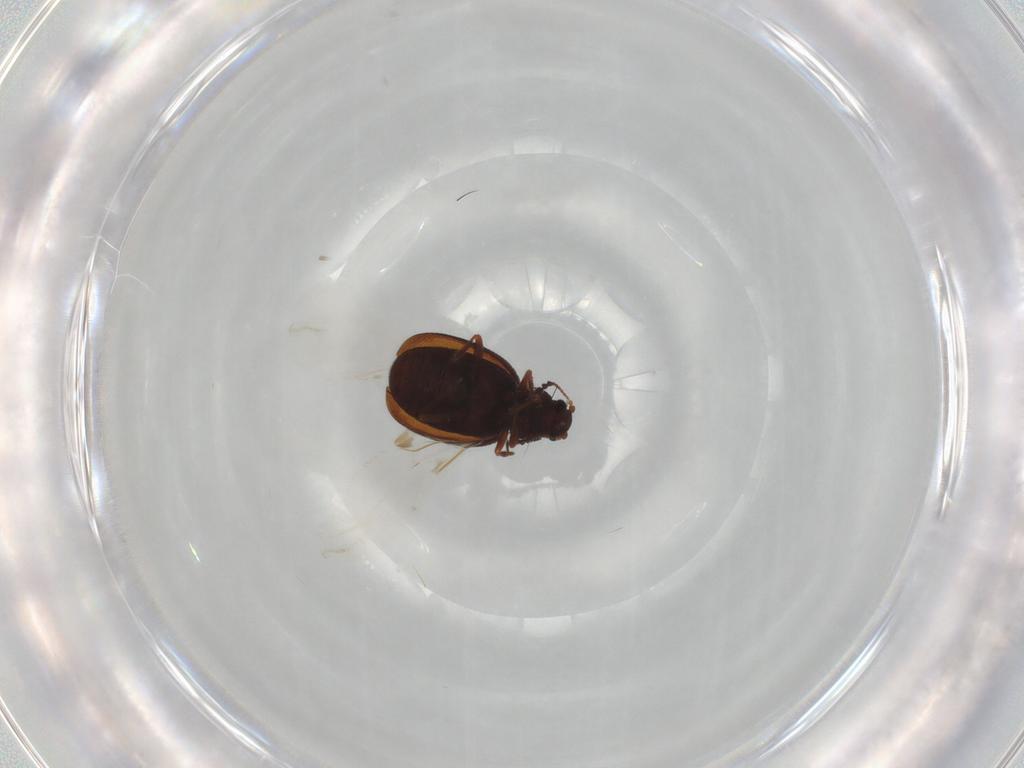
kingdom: Animalia
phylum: Arthropoda
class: Insecta
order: Coleoptera
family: Latridiidae
